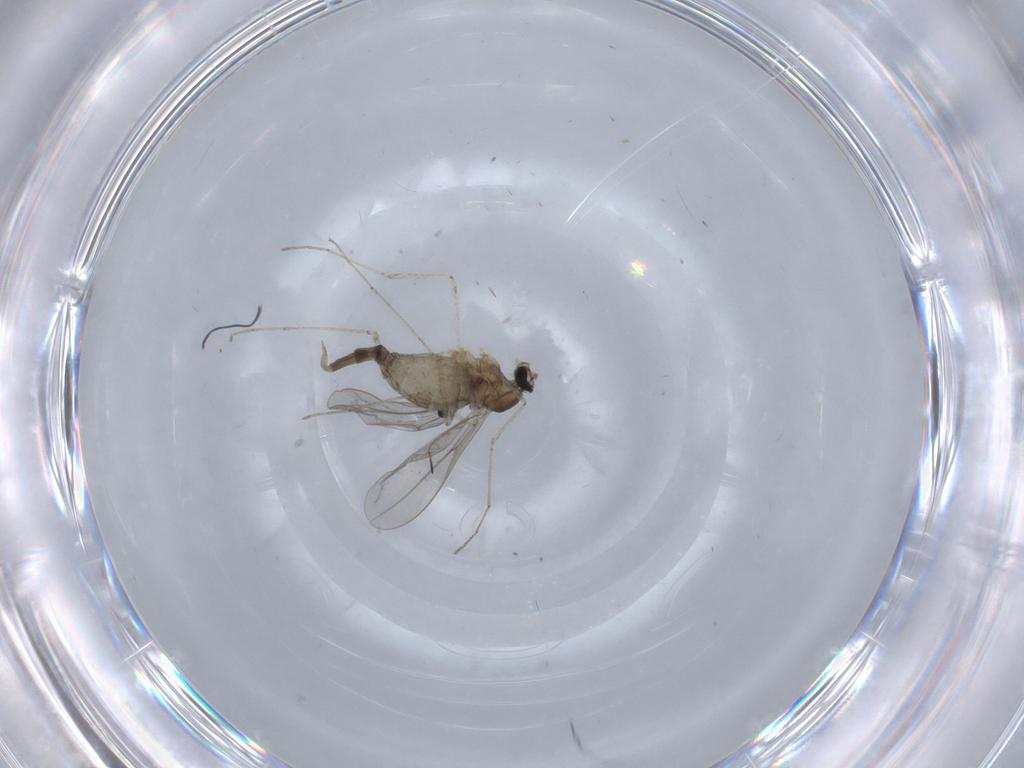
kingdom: Animalia
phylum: Arthropoda
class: Insecta
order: Diptera
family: Cecidomyiidae
